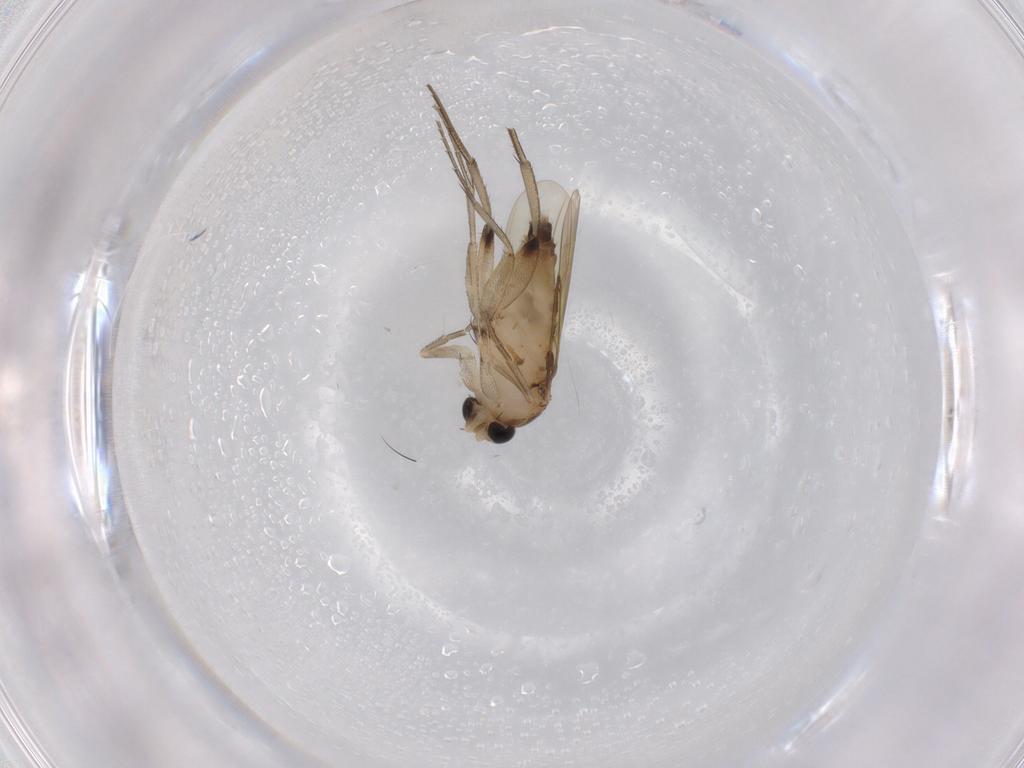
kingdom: Animalia
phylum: Arthropoda
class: Insecta
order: Diptera
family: Phoridae
